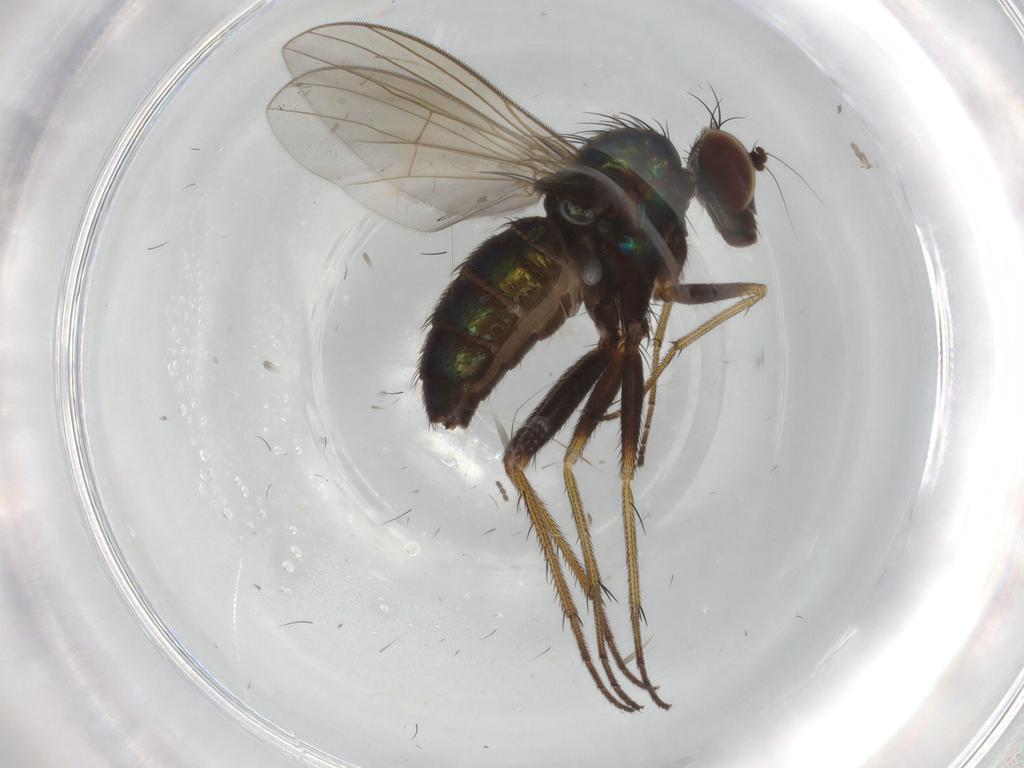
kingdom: Animalia
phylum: Arthropoda
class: Insecta
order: Diptera
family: Dolichopodidae
